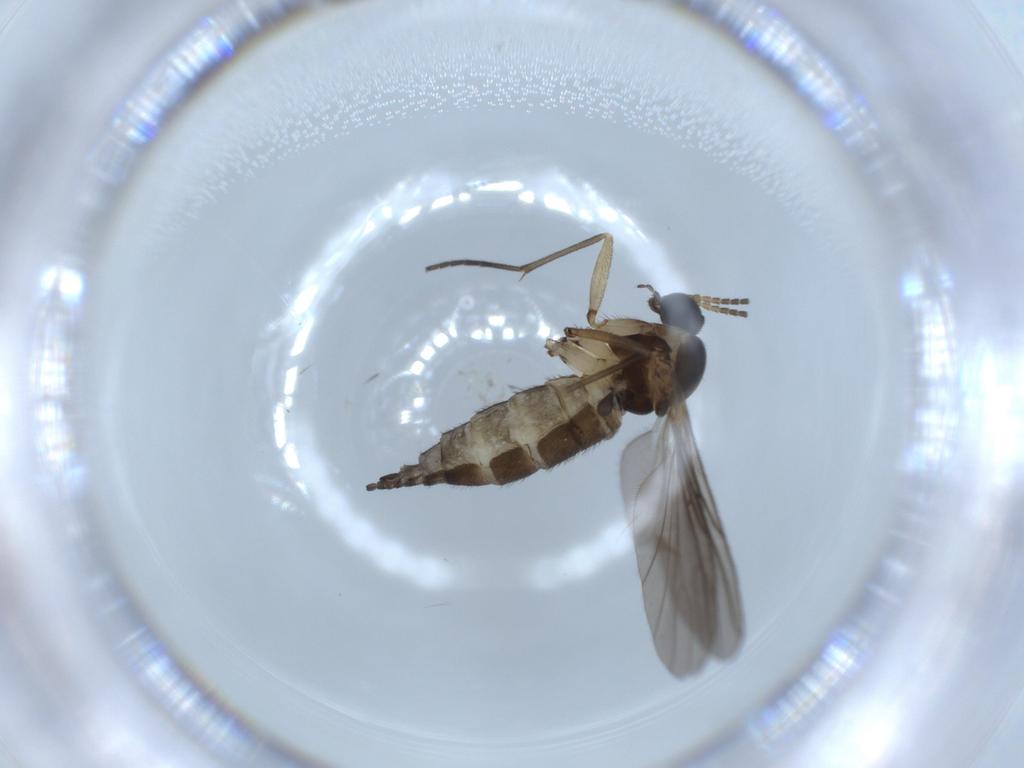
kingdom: Animalia
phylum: Arthropoda
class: Insecta
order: Diptera
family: Sciaridae
